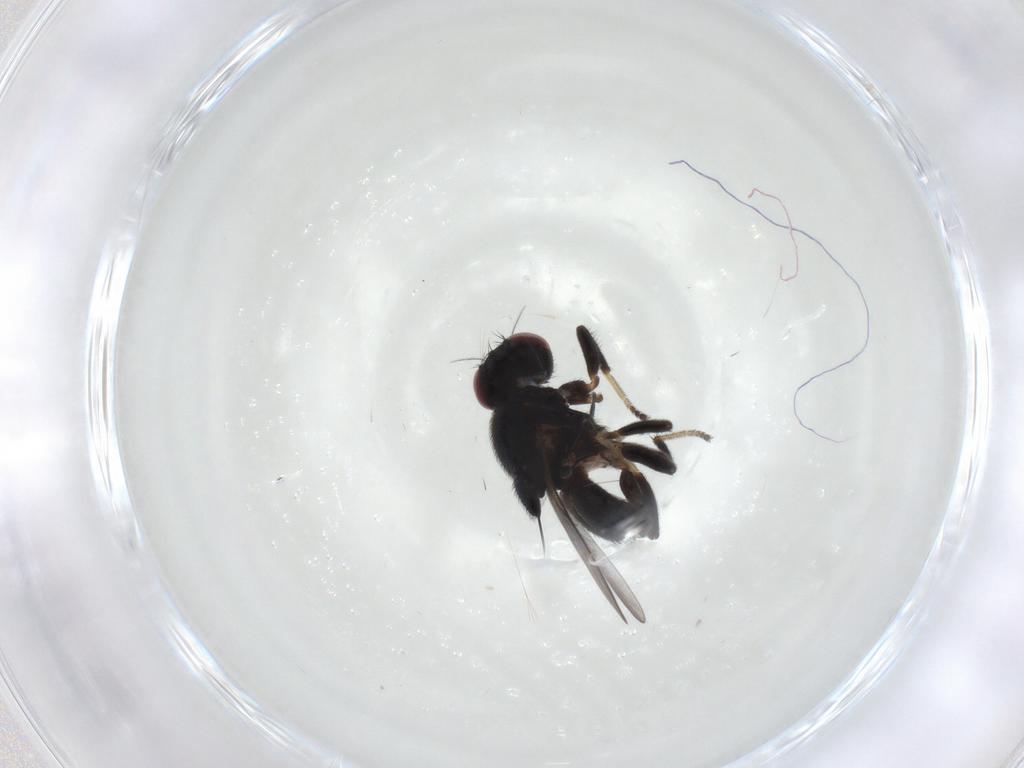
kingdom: Animalia
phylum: Arthropoda
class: Insecta
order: Diptera
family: Chloropidae
